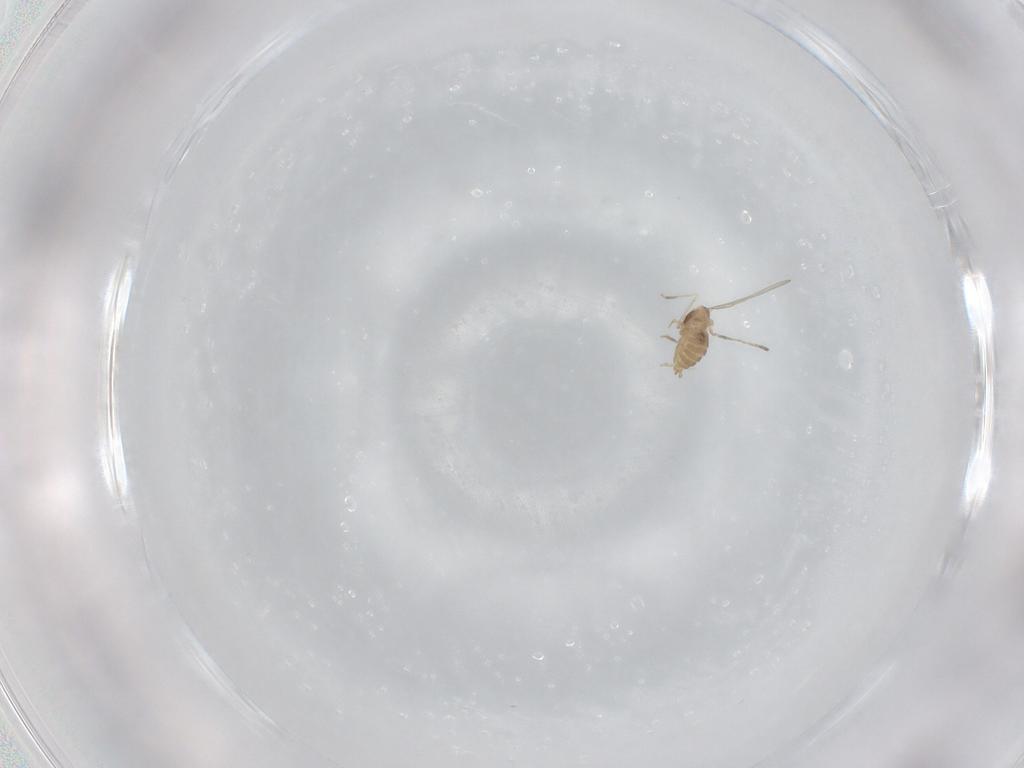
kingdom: Animalia
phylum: Arthropoda
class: Insecta
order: Diptera
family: Cecidomyiidae
